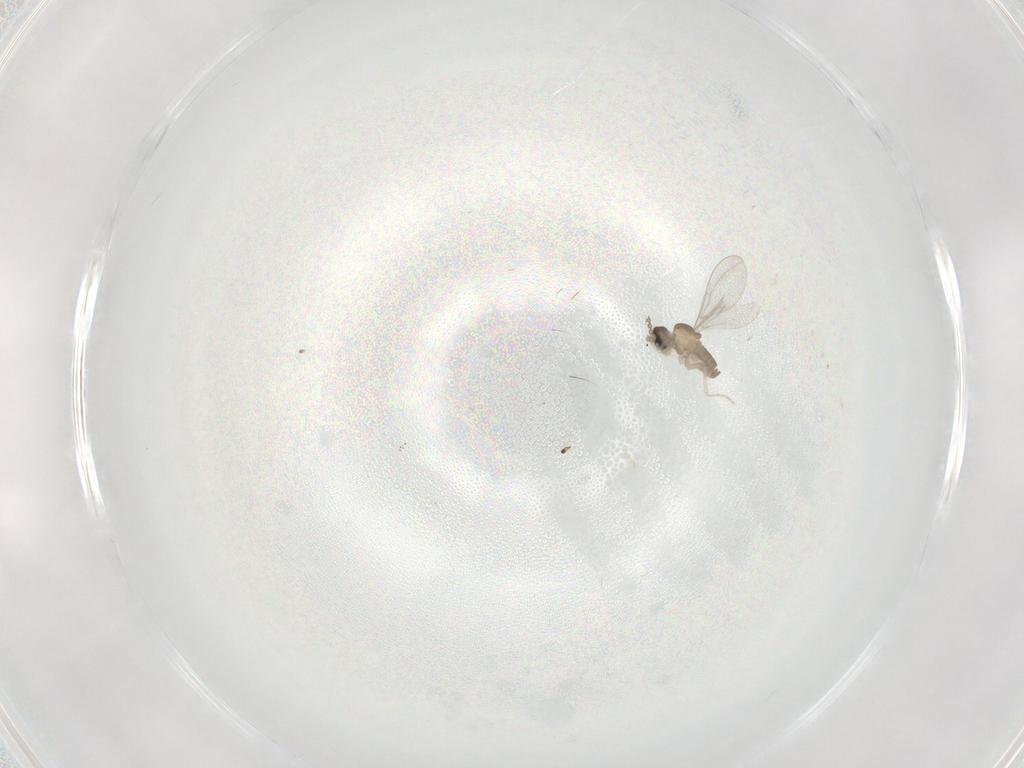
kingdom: Animalia
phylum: Arthropoda
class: Insecta
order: Diptera
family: Cecidomyiidae
